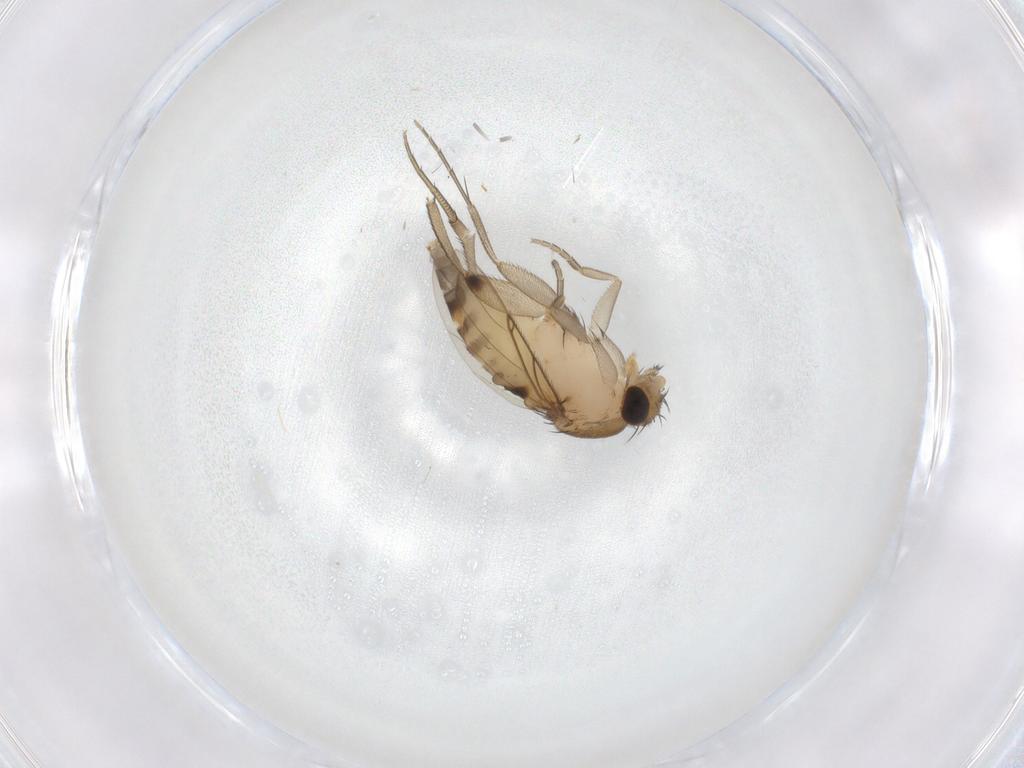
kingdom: Animalia
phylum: Arthropoda
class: Insecta
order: Diptera
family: Phoridae
